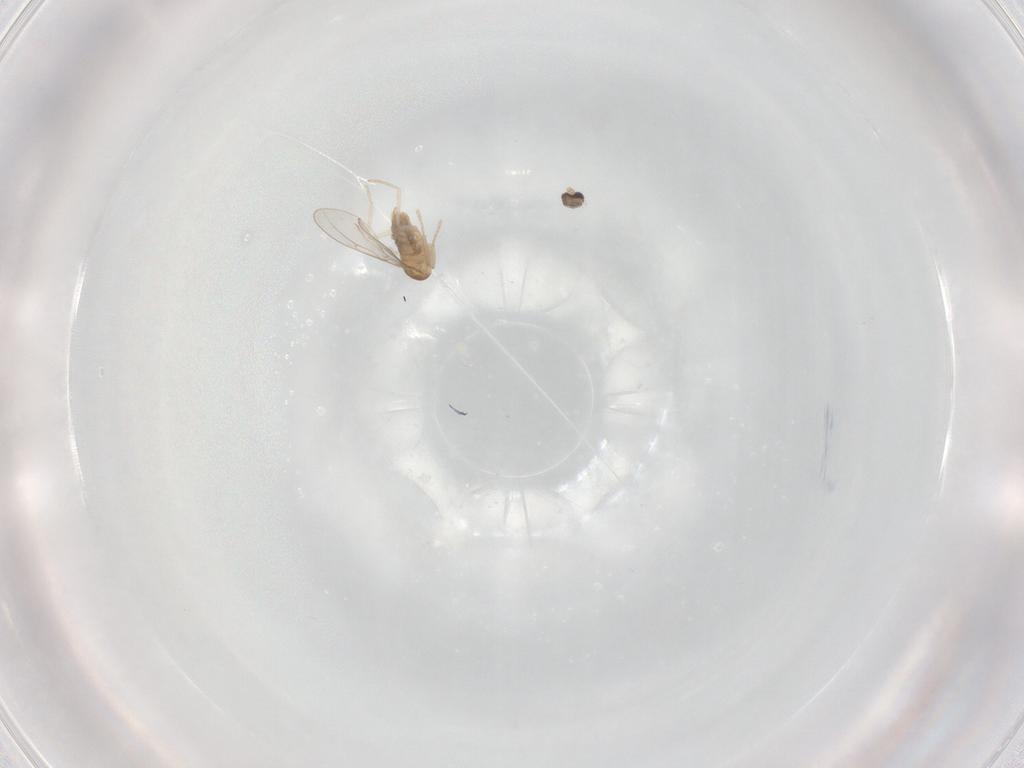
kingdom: Animalia
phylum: Arthropoda
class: Insecta
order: Diptera
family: Cecidomyiidae
